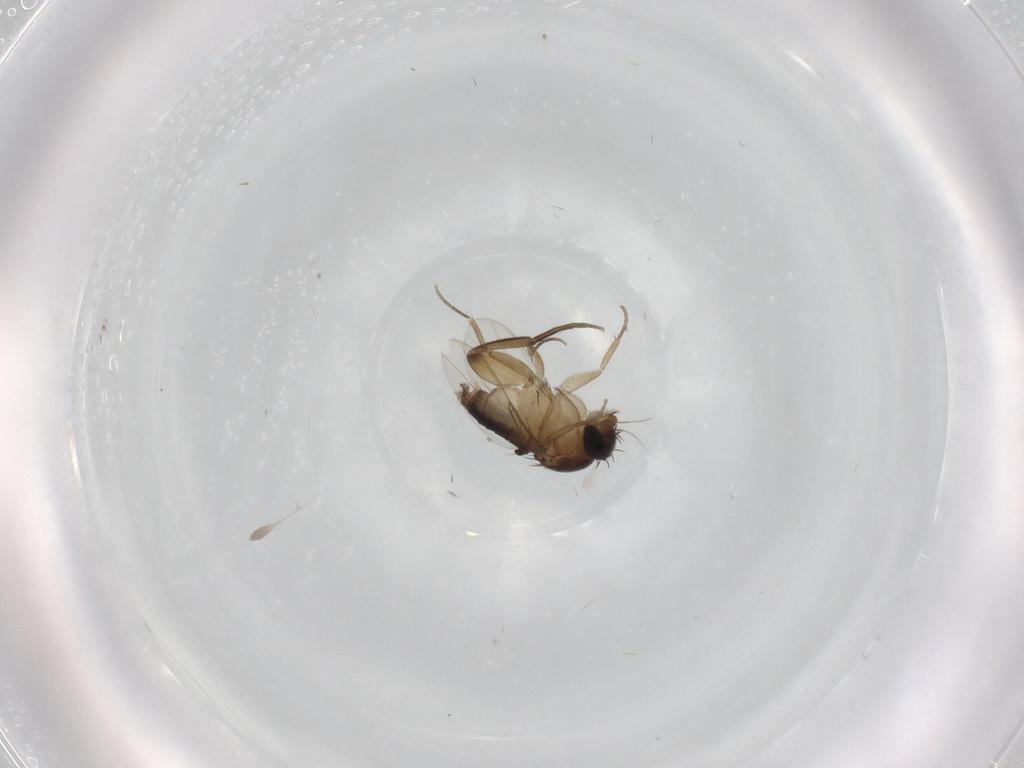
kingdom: Animalia
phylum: Arthropoda
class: Insecta
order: Diptera
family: Phoridae
